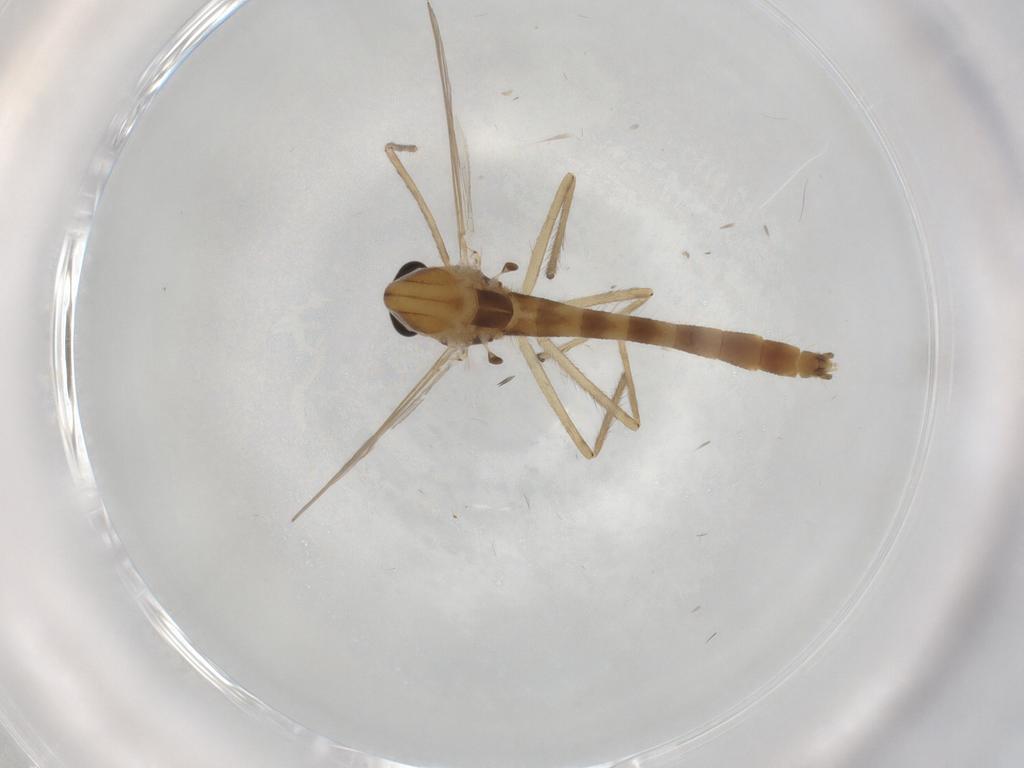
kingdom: Animalia
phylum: Arthropoda
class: Insecta
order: Diptera
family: Chironomidae
